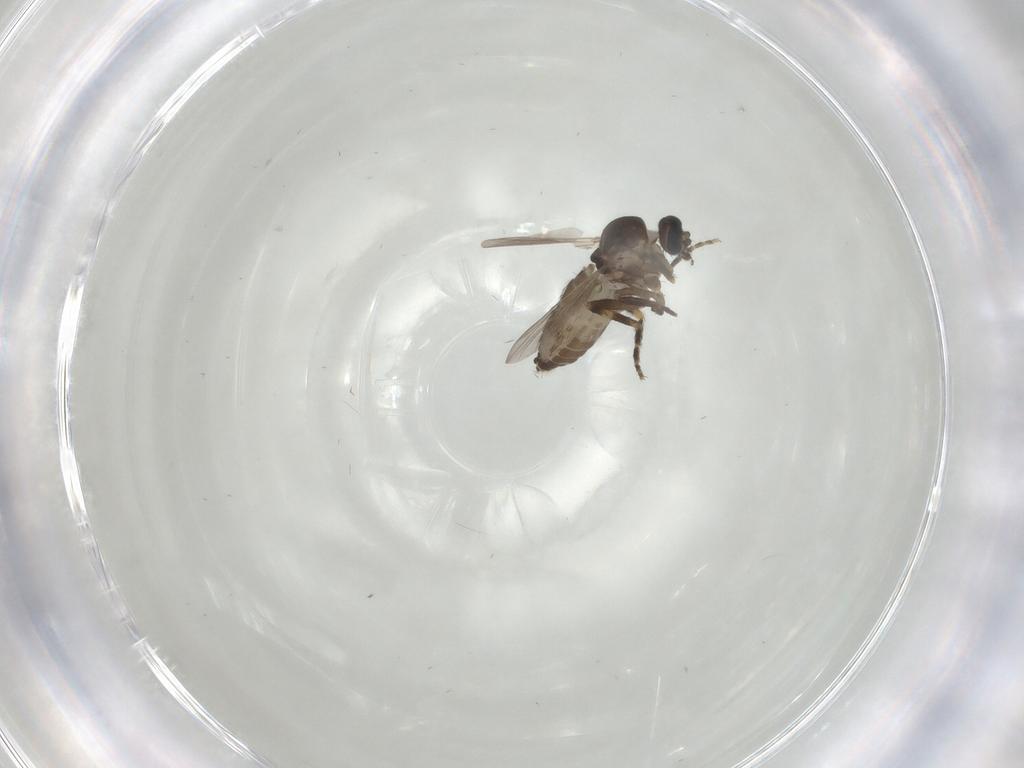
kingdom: Animalia
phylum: Arthropoda
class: Insecta
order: Diptera
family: Ceratopogonidae
